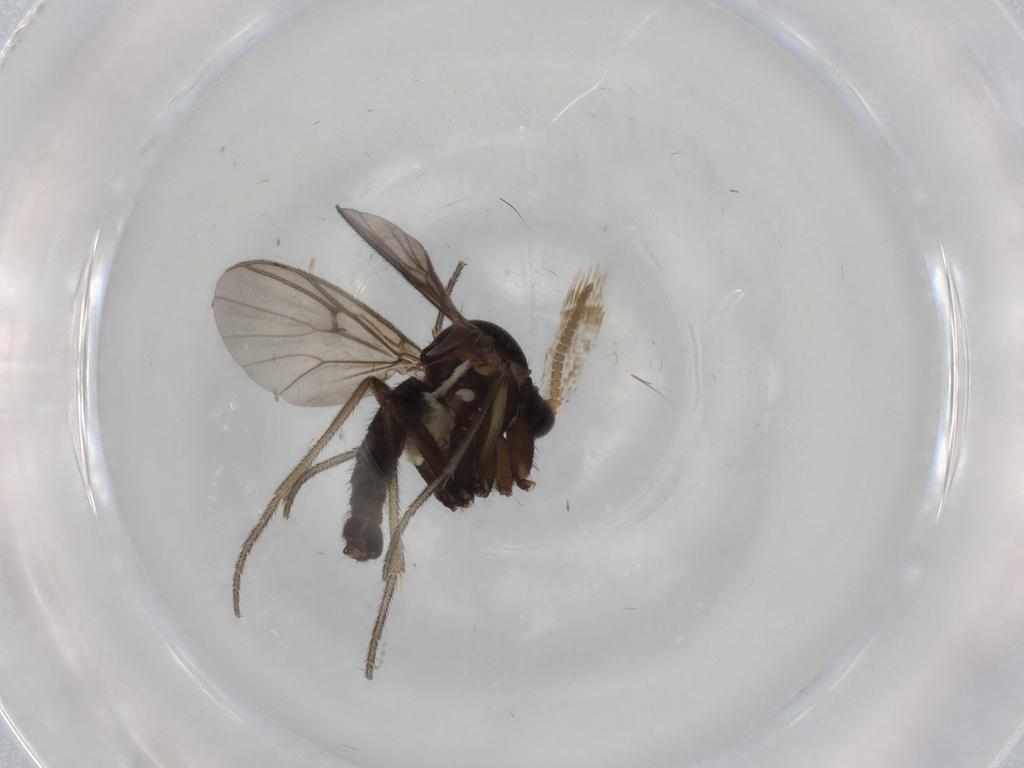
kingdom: Animalia
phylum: Arthropoda
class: Insecta
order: Diptera
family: Mycetophilidae
